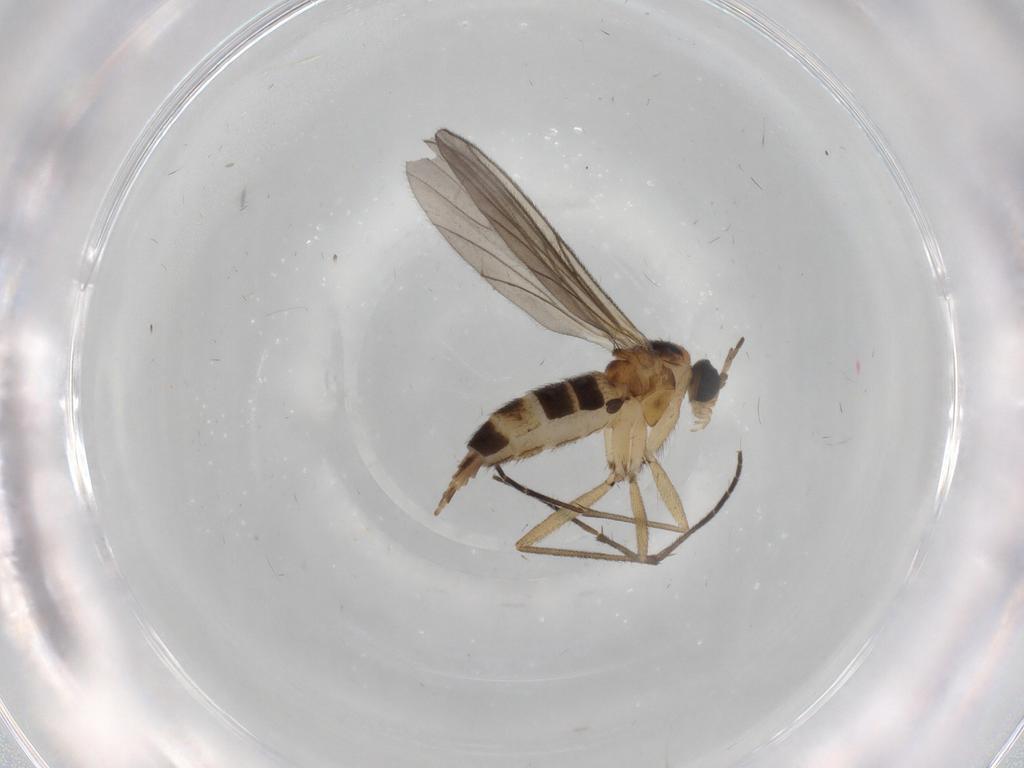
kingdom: Animalia
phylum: Arthropoda
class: Insecta
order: Diptera
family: Sciaridae
